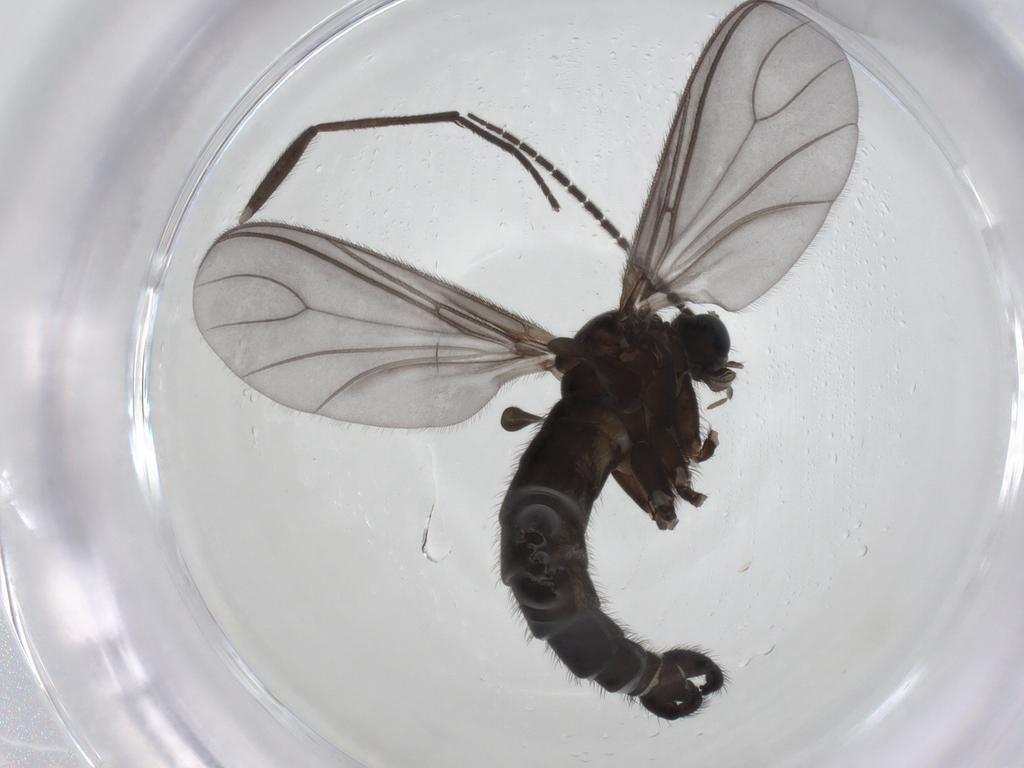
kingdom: Animalia
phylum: Arthropoda
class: Insecta
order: Diptera
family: Sciaridae
